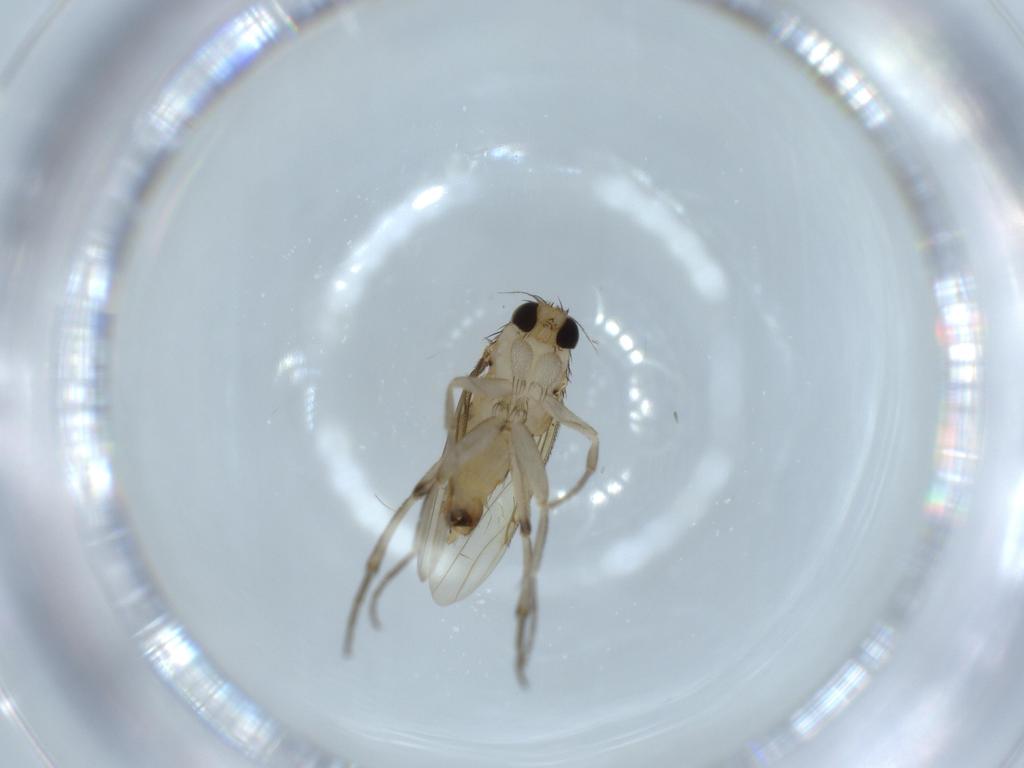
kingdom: Animalia
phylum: Arthropoda
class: Insecta
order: Diptera
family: Phoridae
